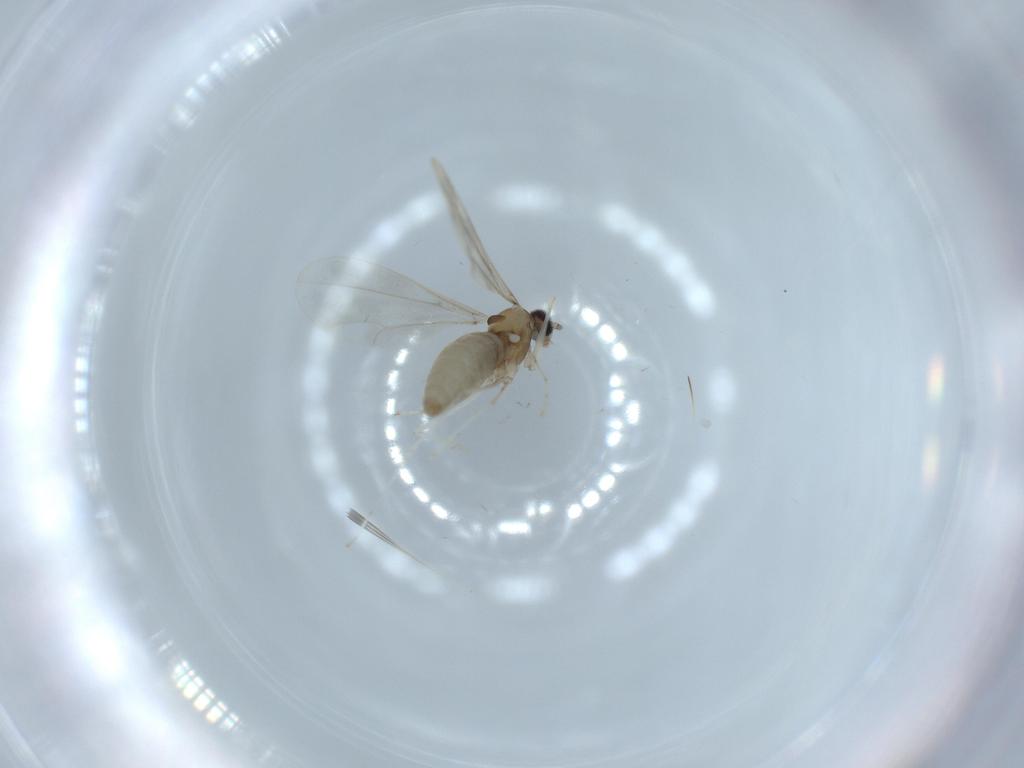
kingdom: Animalia
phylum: Arthropoda
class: Insecta
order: Diptera
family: Cecidomyiidae
